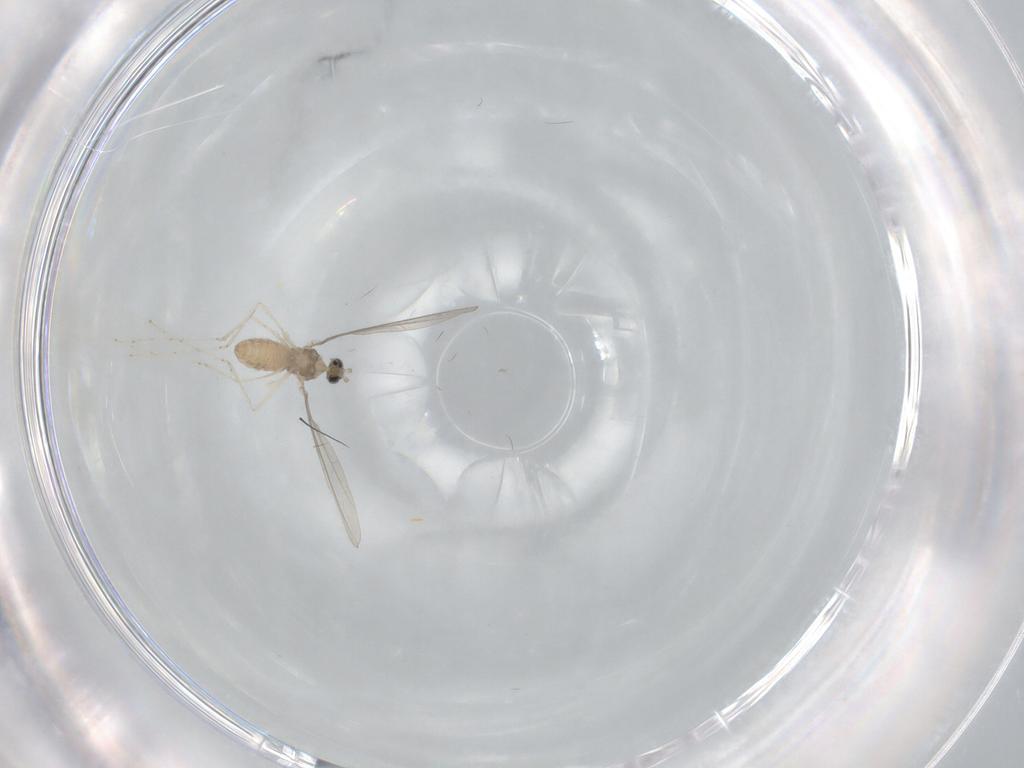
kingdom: Animalia
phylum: Arthropoda
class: Insecta
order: Diptera
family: Cecidomyiidae
